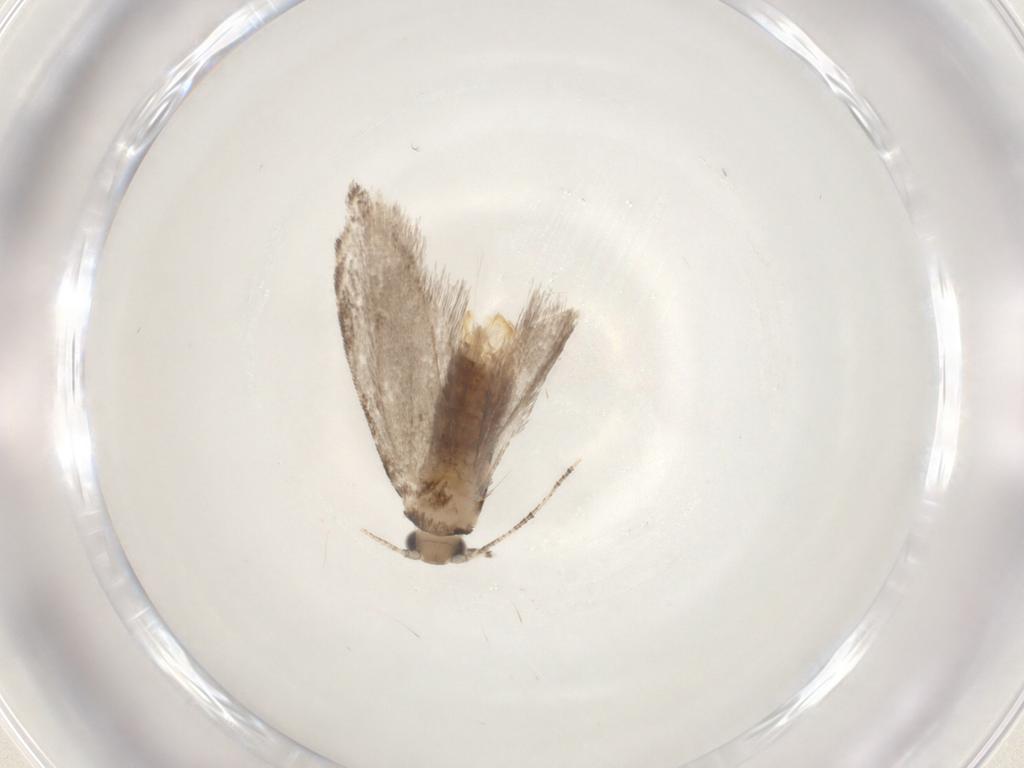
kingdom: Animalia
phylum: Arthropoda
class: Insecta
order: Lepidoptera
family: Tineidae
